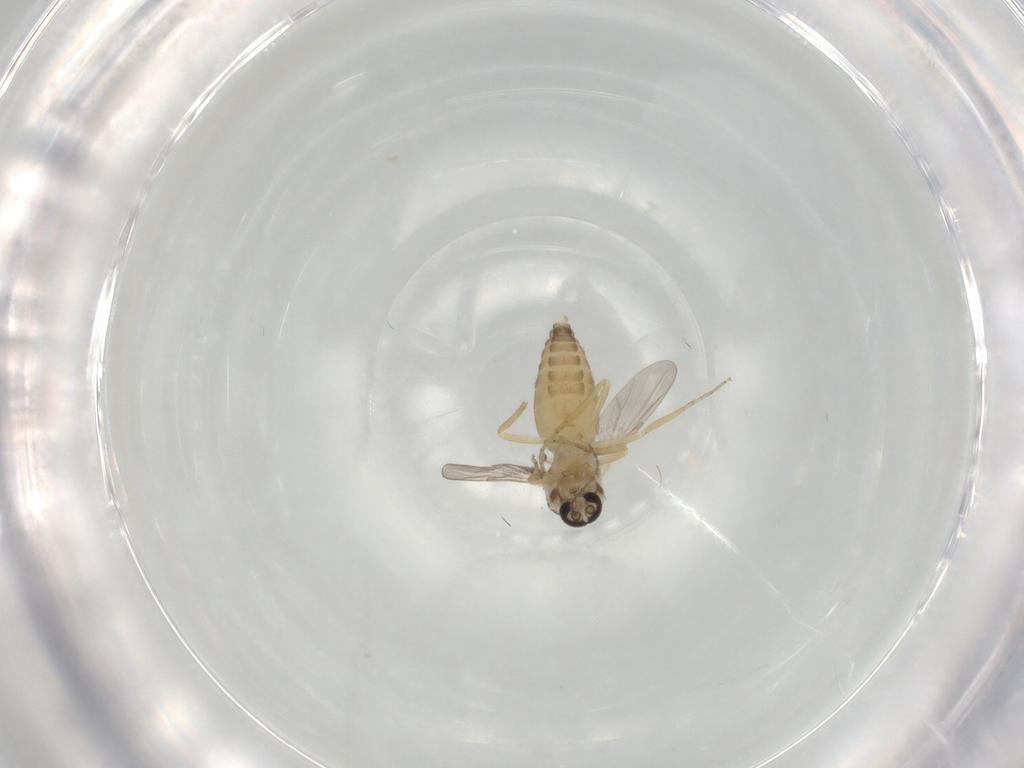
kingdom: Animalia
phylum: Arthropoda
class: Insecta
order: Diptera
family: Ceratopogonidae
